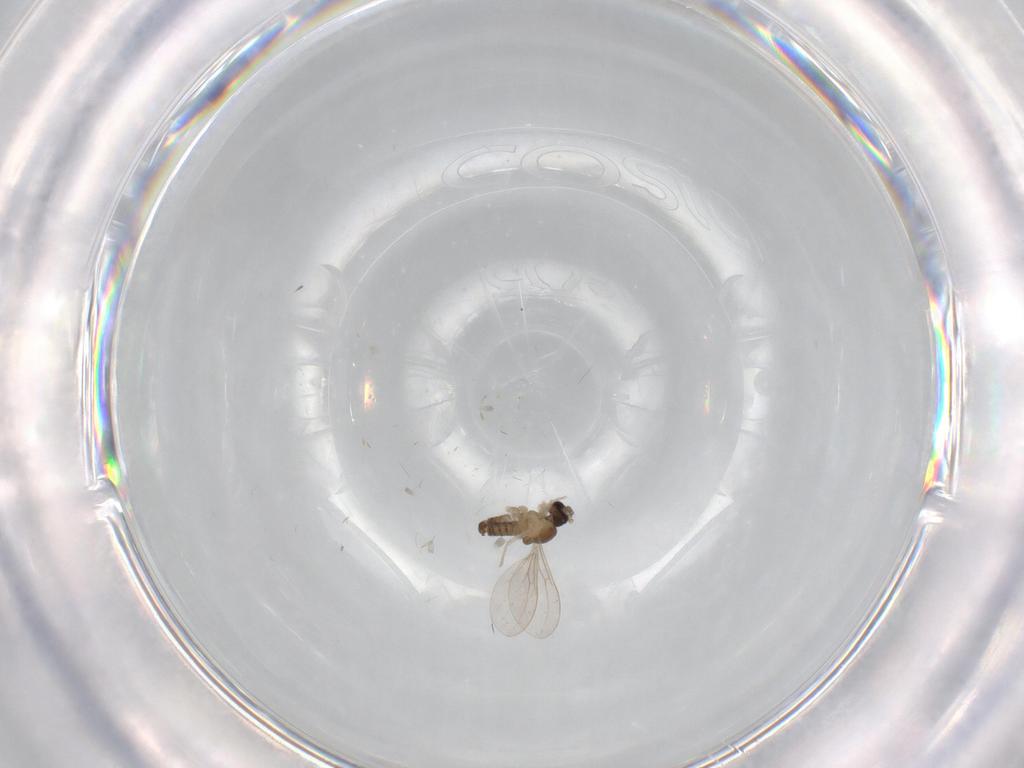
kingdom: Animalia
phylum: Arthropoda
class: Insecta
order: Diptera
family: Cecidomyiidae
